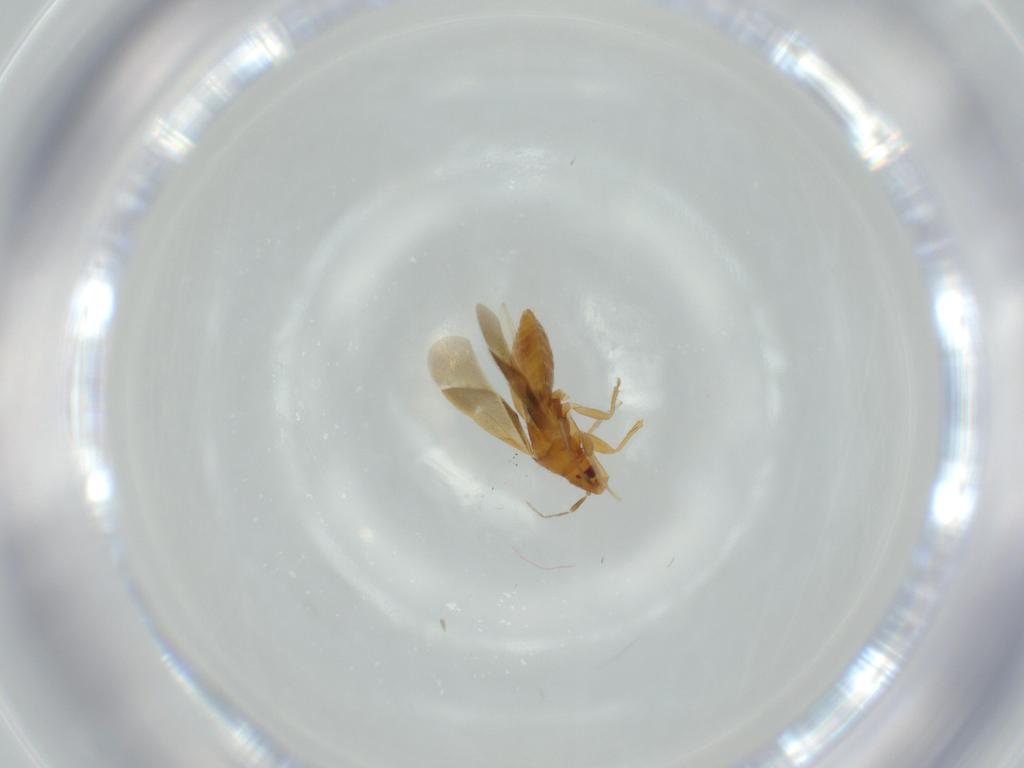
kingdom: Animalia
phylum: Arthropoda
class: Insecta
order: Hemiptera
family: Lasiochilidae
